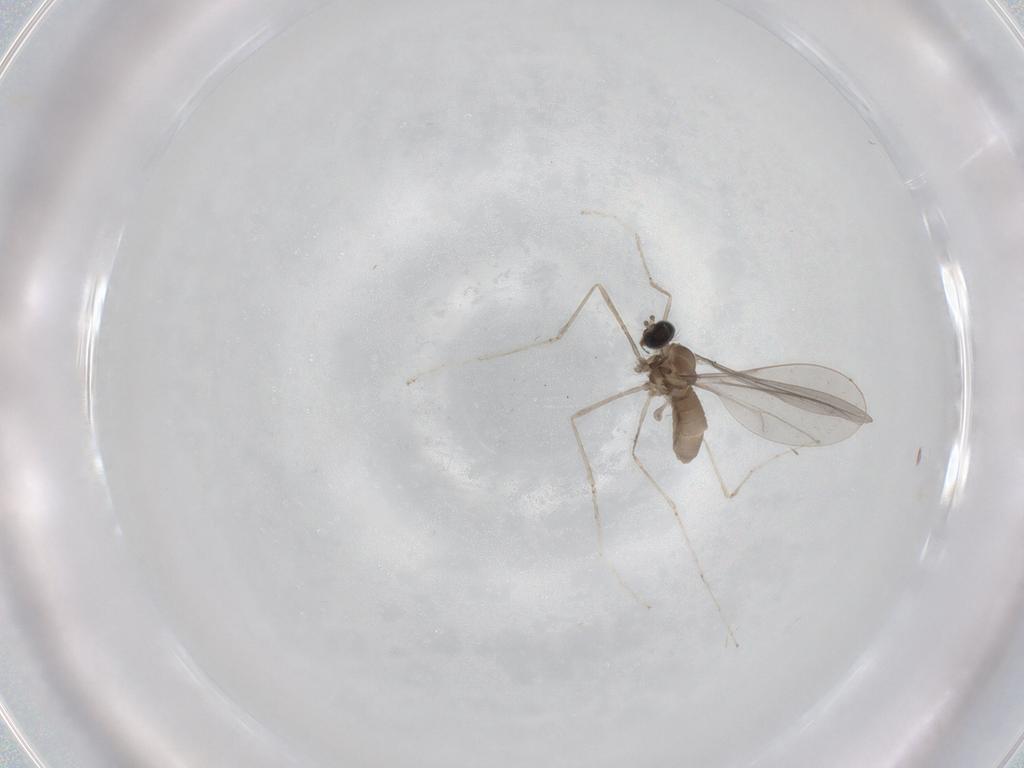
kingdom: Animalia
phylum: Arthropoda
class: Insecta
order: Diptera
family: Cecidomyiidae
